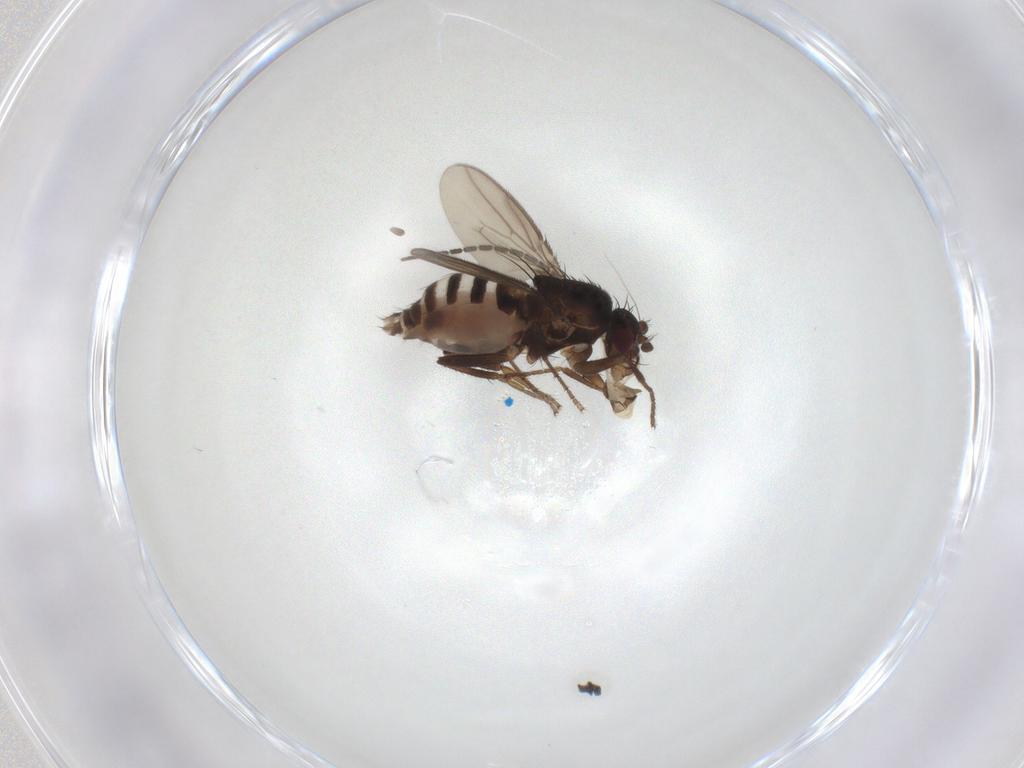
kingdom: Animalia
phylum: Arthropoda
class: Insecta
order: Diptera
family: Sphaeroceridae
